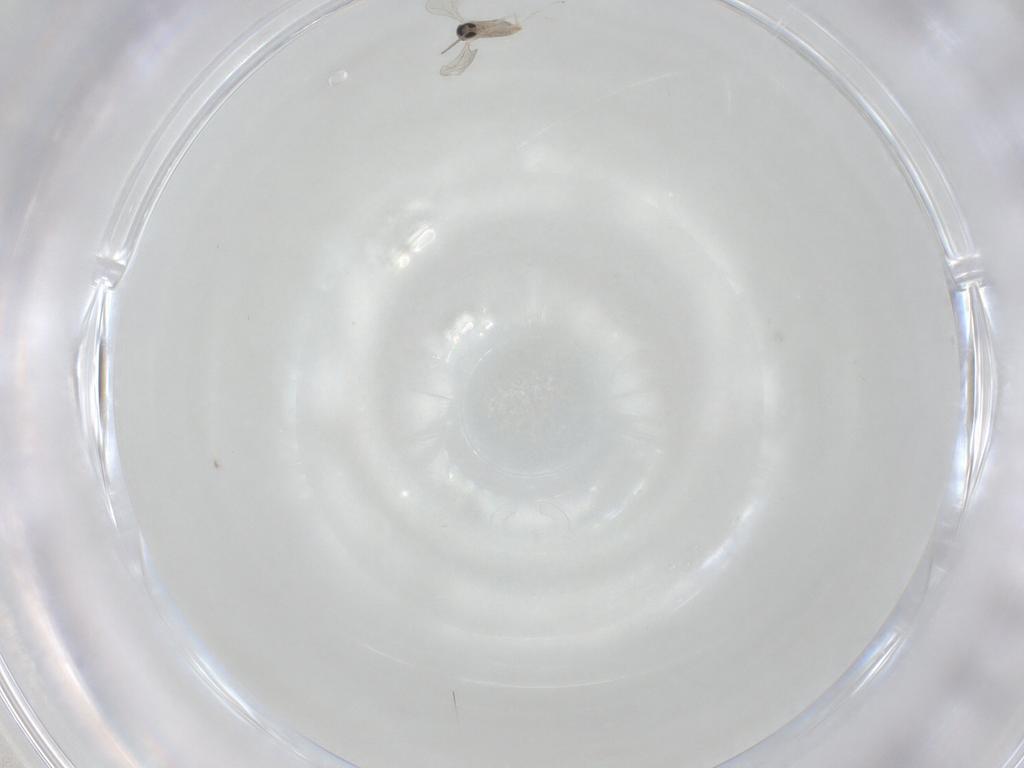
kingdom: Animalia
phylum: Arthropoda
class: Insecta
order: Diptera
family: Cecidomyiidae
